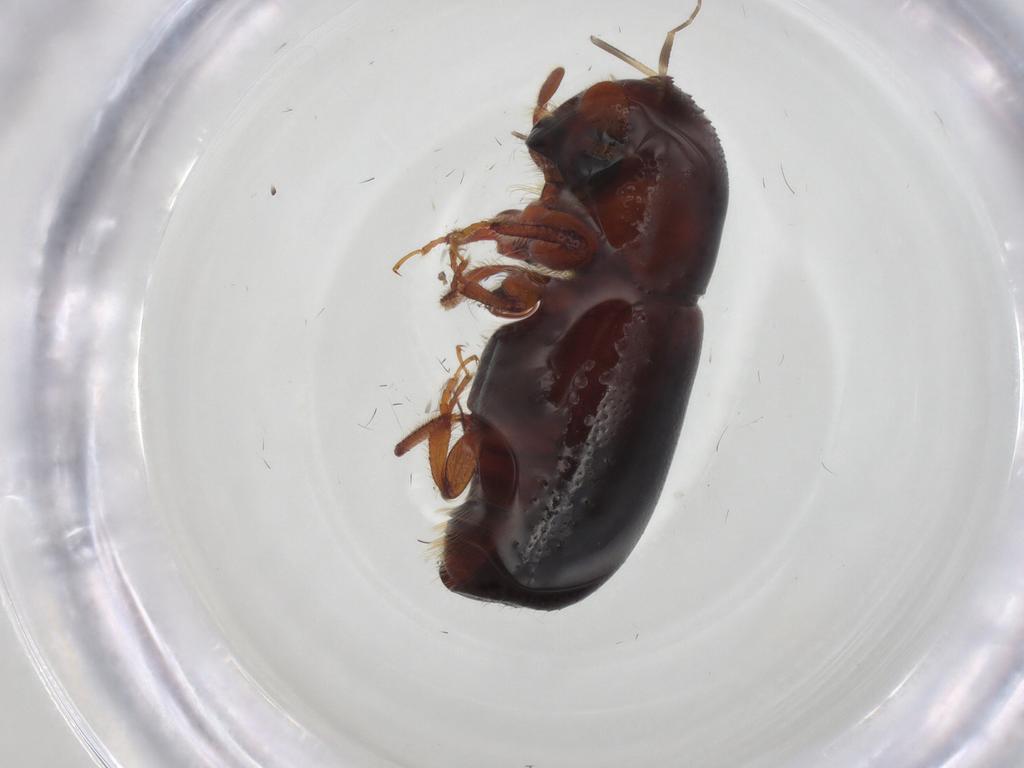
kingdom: Animalia
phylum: Arthropoda
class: Insecta
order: Coleoptera
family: Curculionidae
